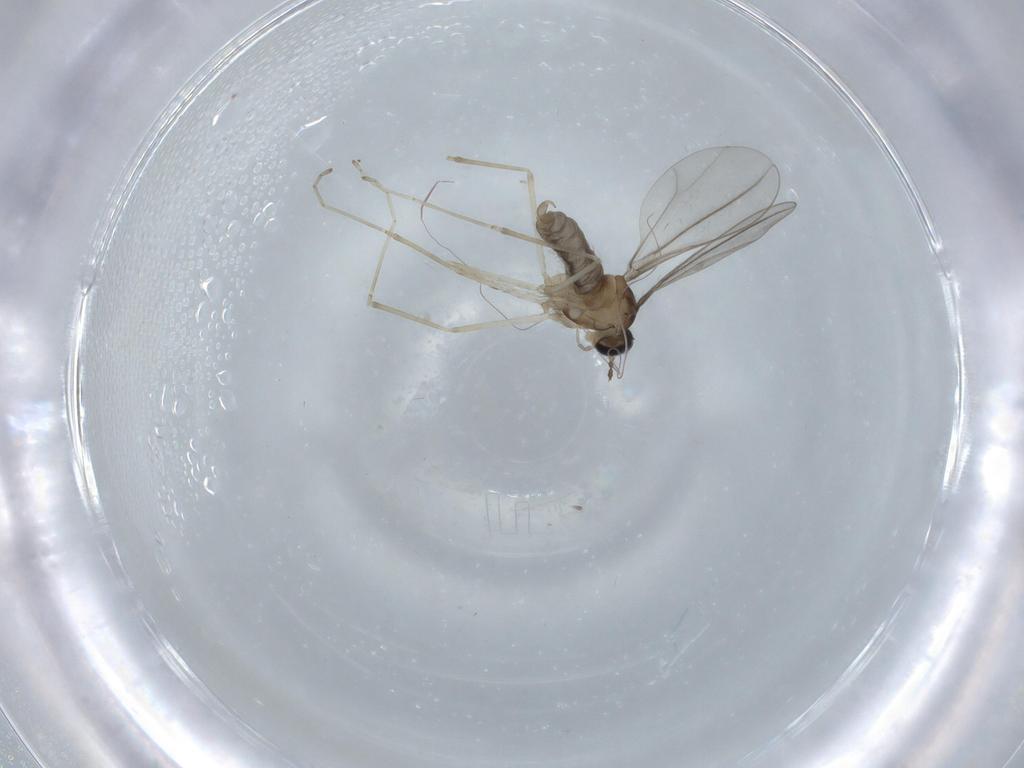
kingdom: Animalia
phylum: Arthropoda
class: Insecta
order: Diptera
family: Cecidomyiidae
